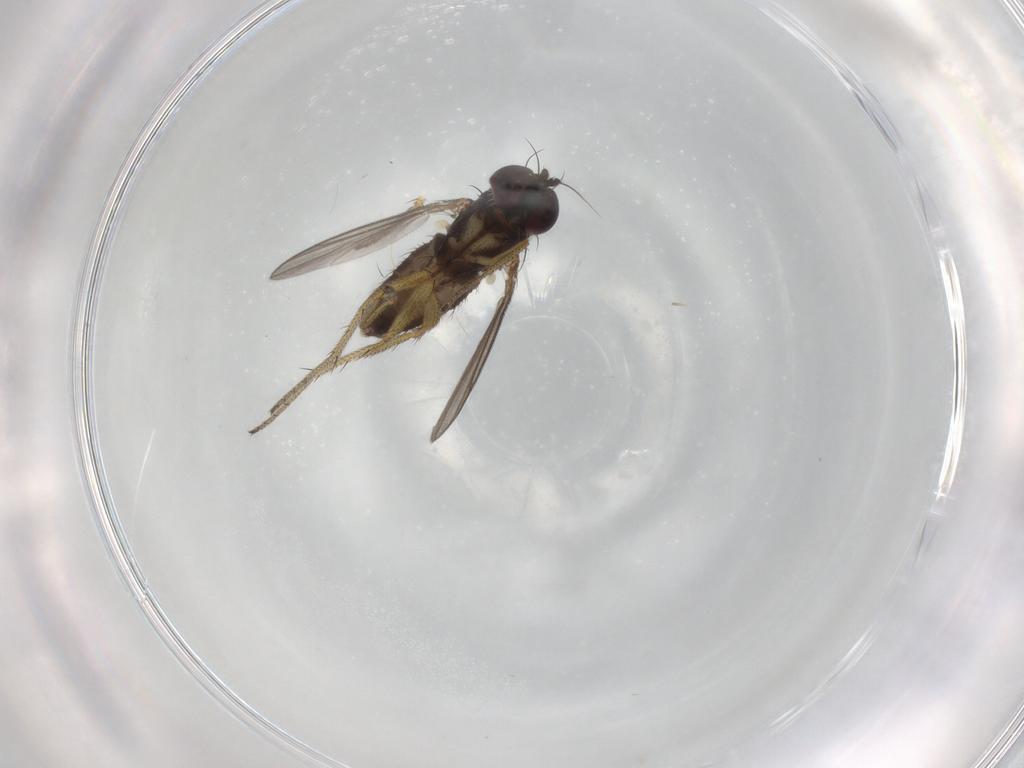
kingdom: Animalia
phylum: Arthropoda
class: Insecta
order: Diptera
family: Dolichopodidae
